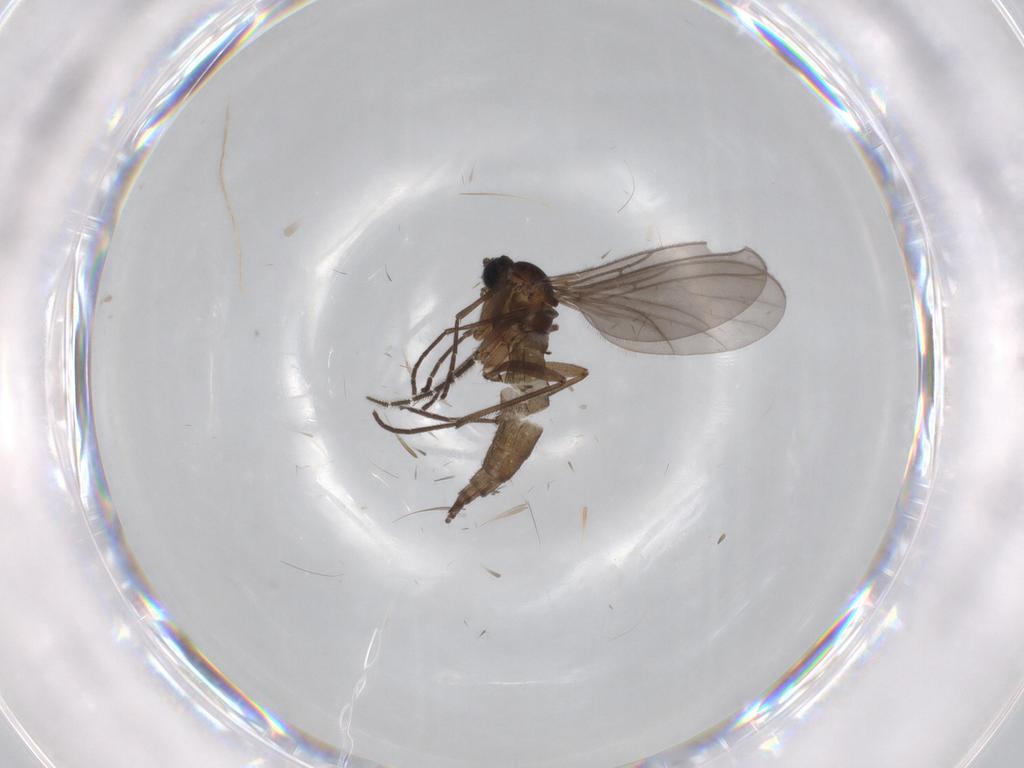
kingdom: Animalia
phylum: Arthropoda
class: Insecta
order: Diptera
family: Sciaridae
